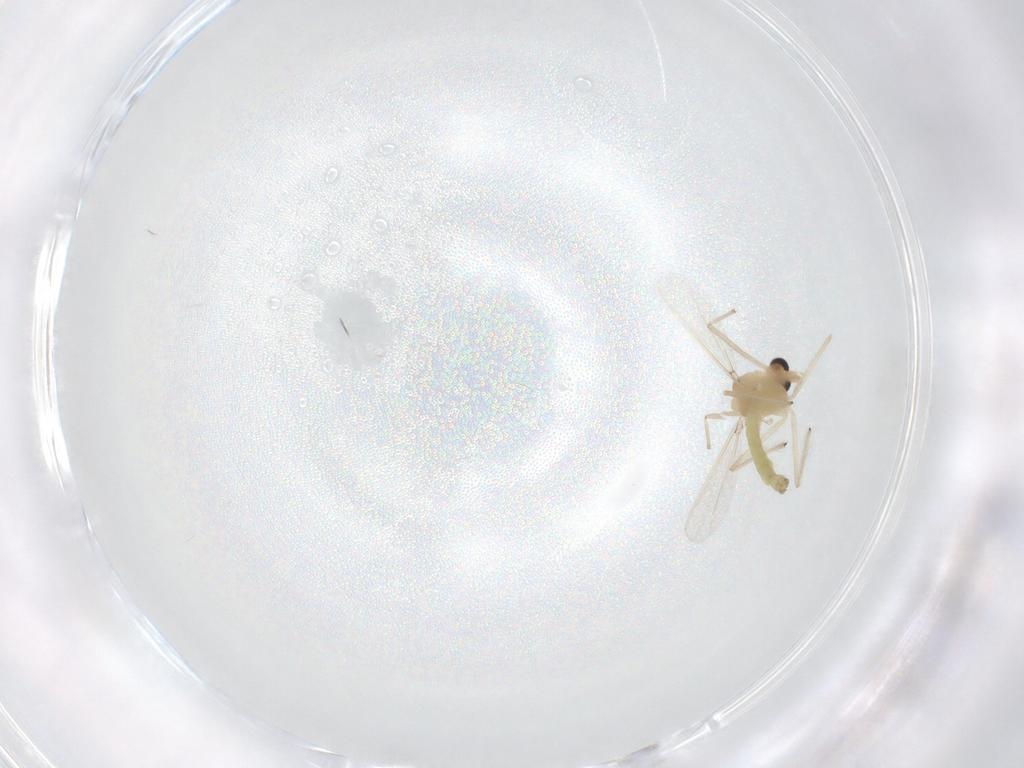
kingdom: Animalia
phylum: Arthropoda
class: Insecta
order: Diptera
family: Chironomidae
